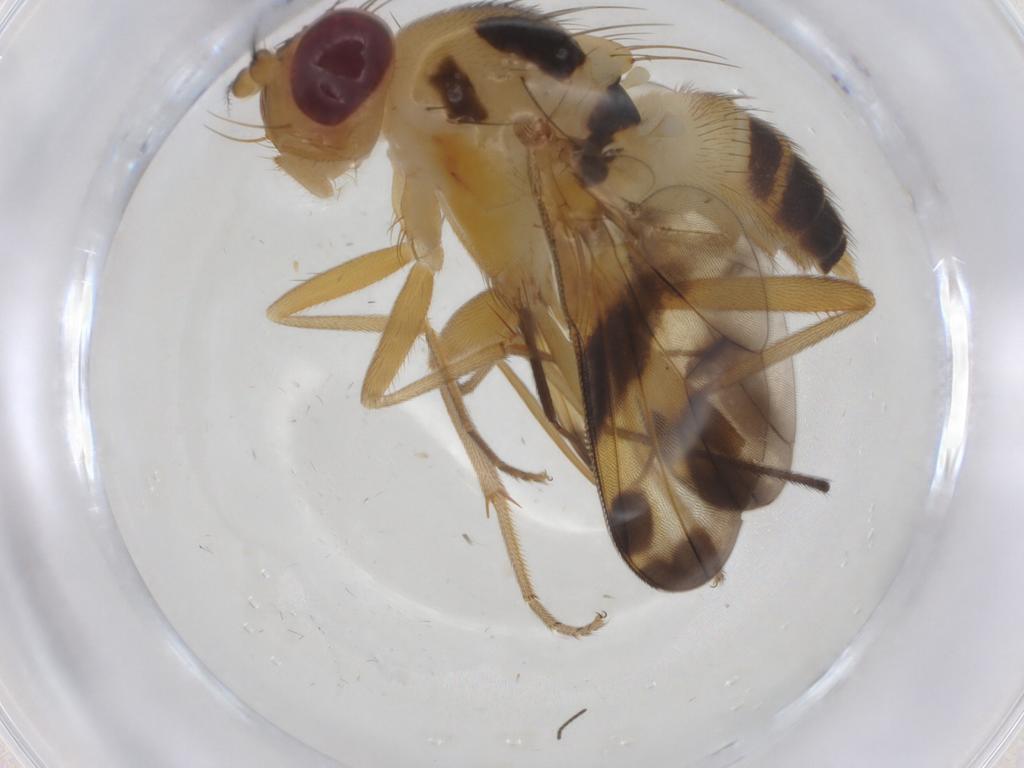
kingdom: Animalia
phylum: Arthropoda
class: Insecta
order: Diptera
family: Clusiidae
